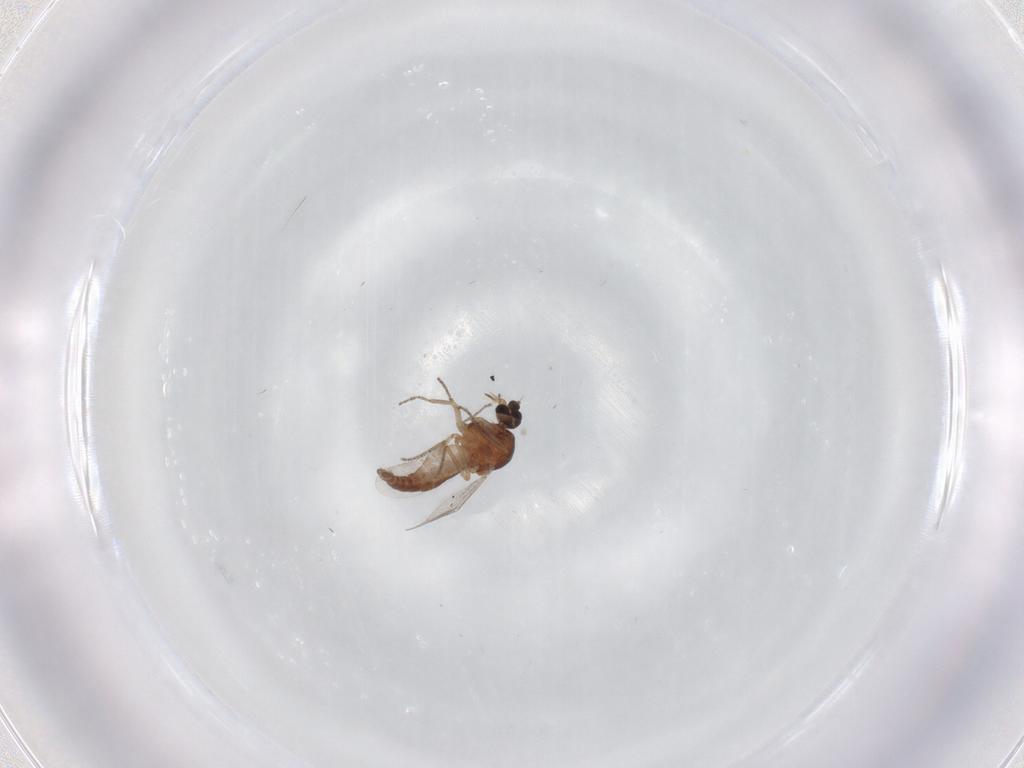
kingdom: Animalia
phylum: Arthropoda
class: Insecta
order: Diptera
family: Ceratopogonidae
